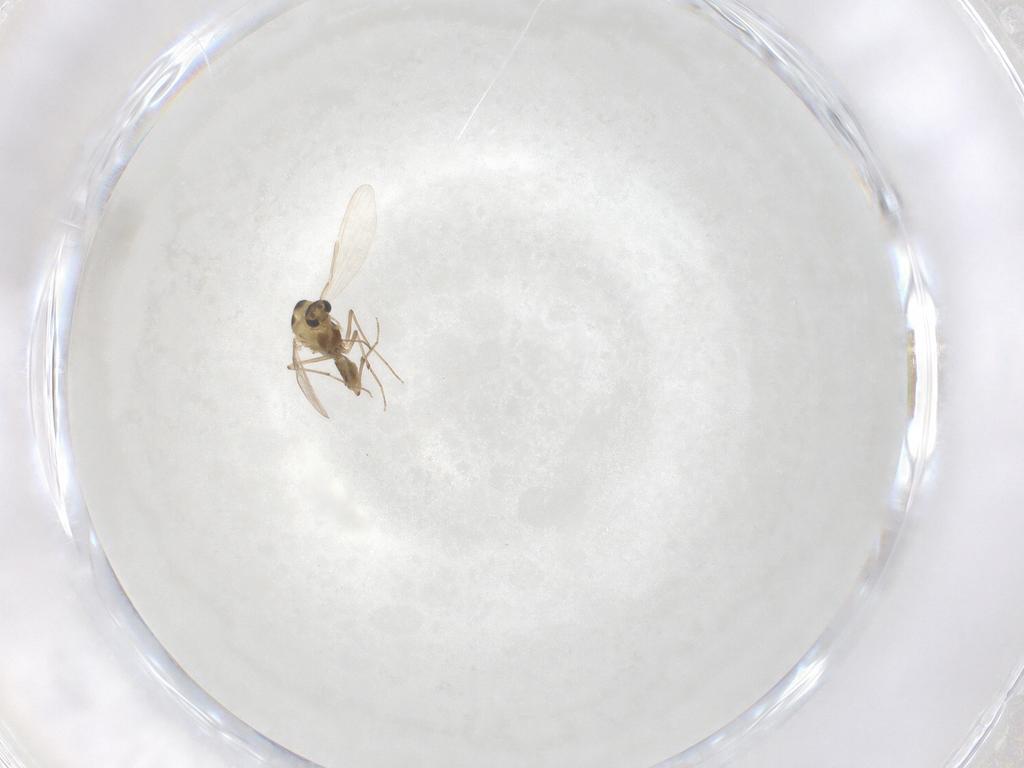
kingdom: Animalia
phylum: Arthropoda
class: Insecta
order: Diptera
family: Chironomidae
